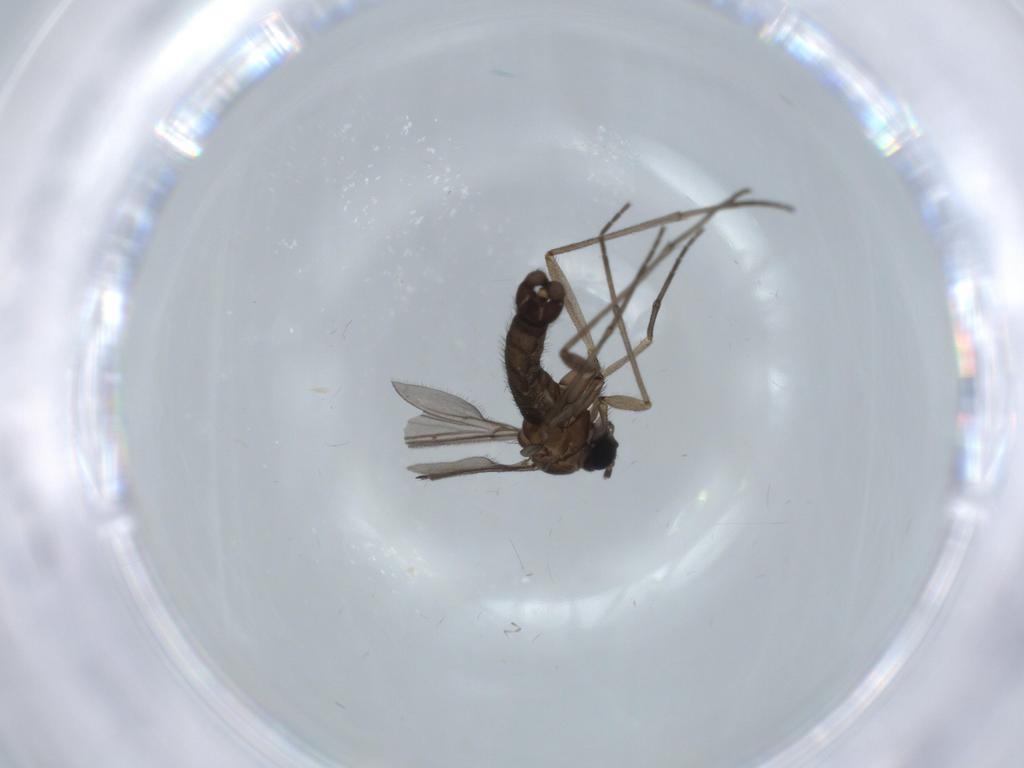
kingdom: Animalia
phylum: Arthropoda
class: Insecta
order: Diptera
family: Sciaridae
